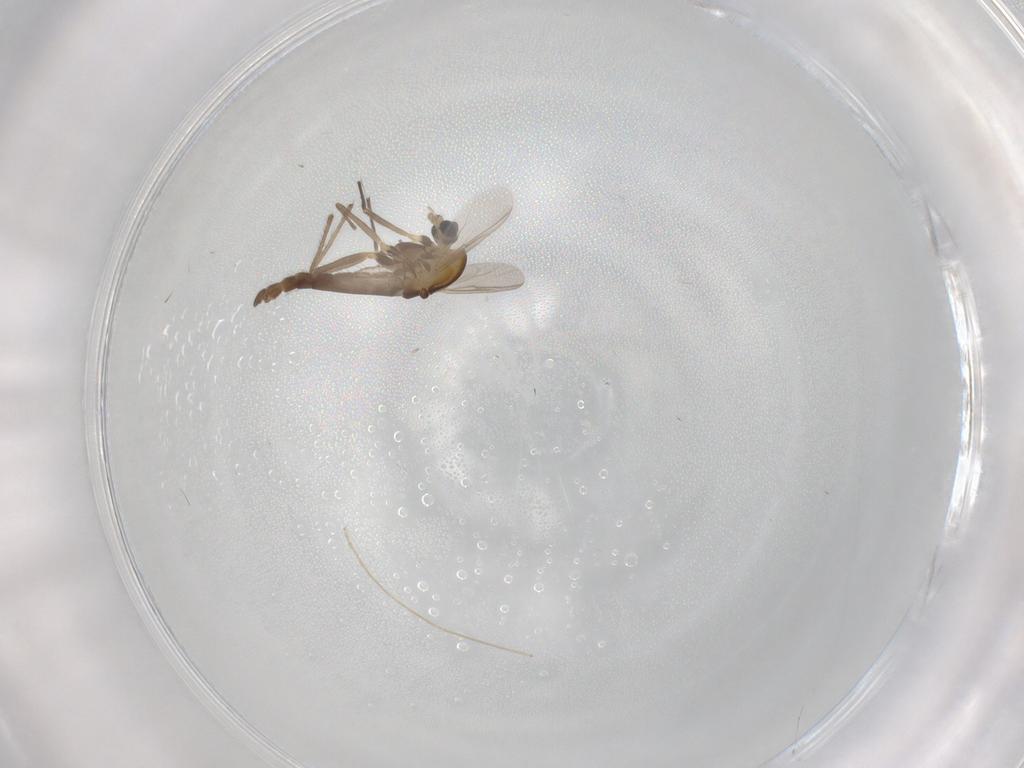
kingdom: Animalia
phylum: Arthropoda
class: Insecta
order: Diptera
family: Chironomidae
